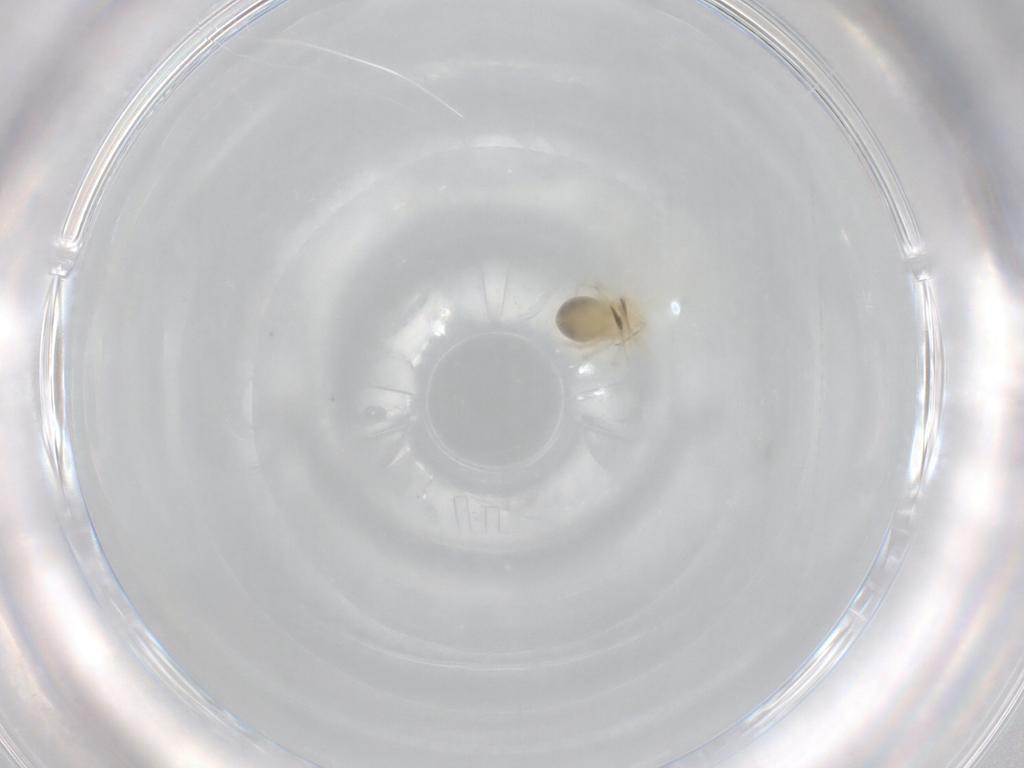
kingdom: Animalia
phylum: Arthropoda
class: Arachnida
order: Trombidiformes
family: Anystidae
